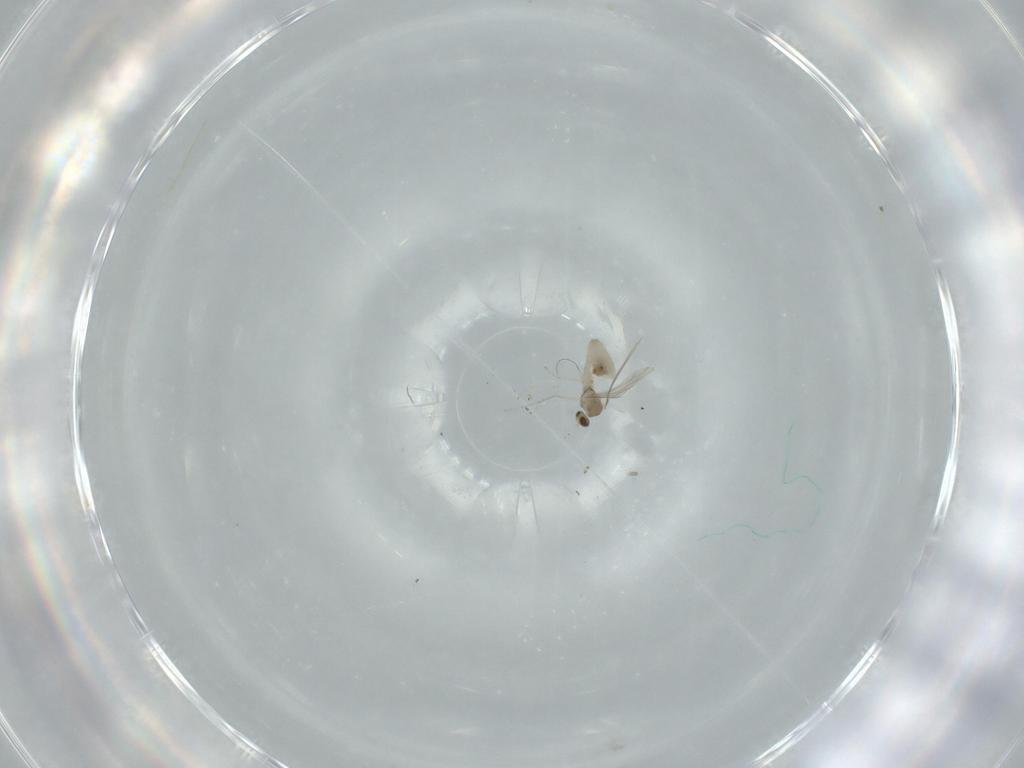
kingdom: Animalia
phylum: Arthropoda
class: Insecta
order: Diptera
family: Cecidomyiidae
